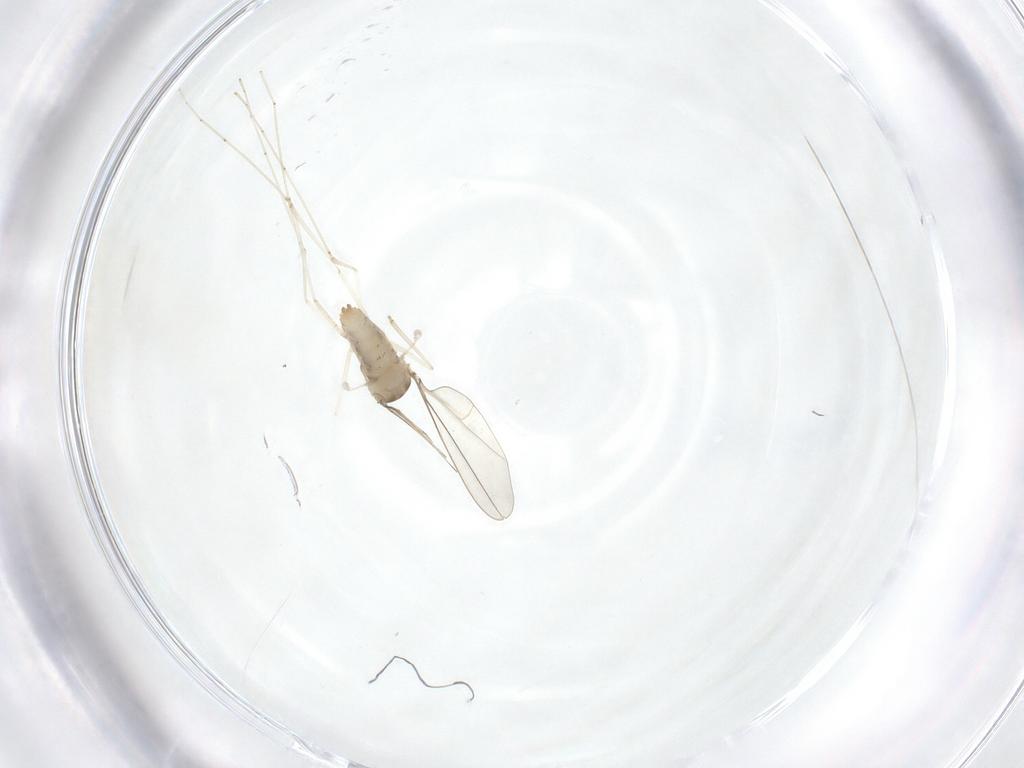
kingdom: Animalia
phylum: Arthropoda
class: Insecta
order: Diptera
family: Cecidomyiidae
